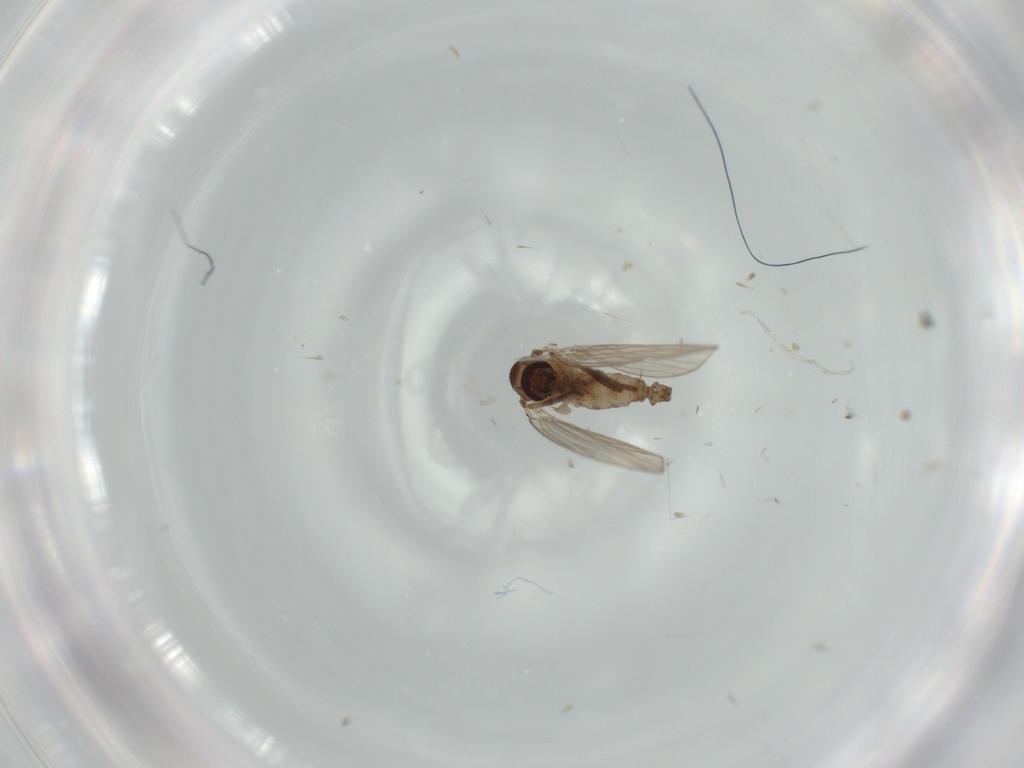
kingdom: Animalia
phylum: Arthropoda
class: Insecta
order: Diptera
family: Psychodidae
